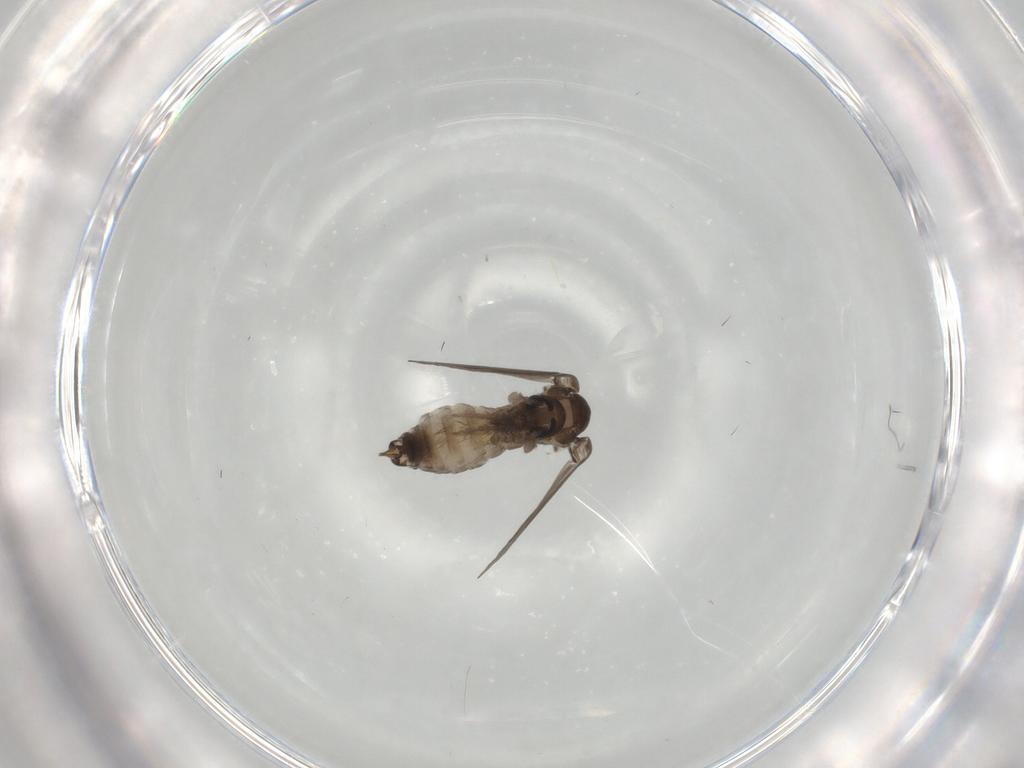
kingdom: Animalia
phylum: Arthropoda
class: Insecta
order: Diptera
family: Psychodidae
